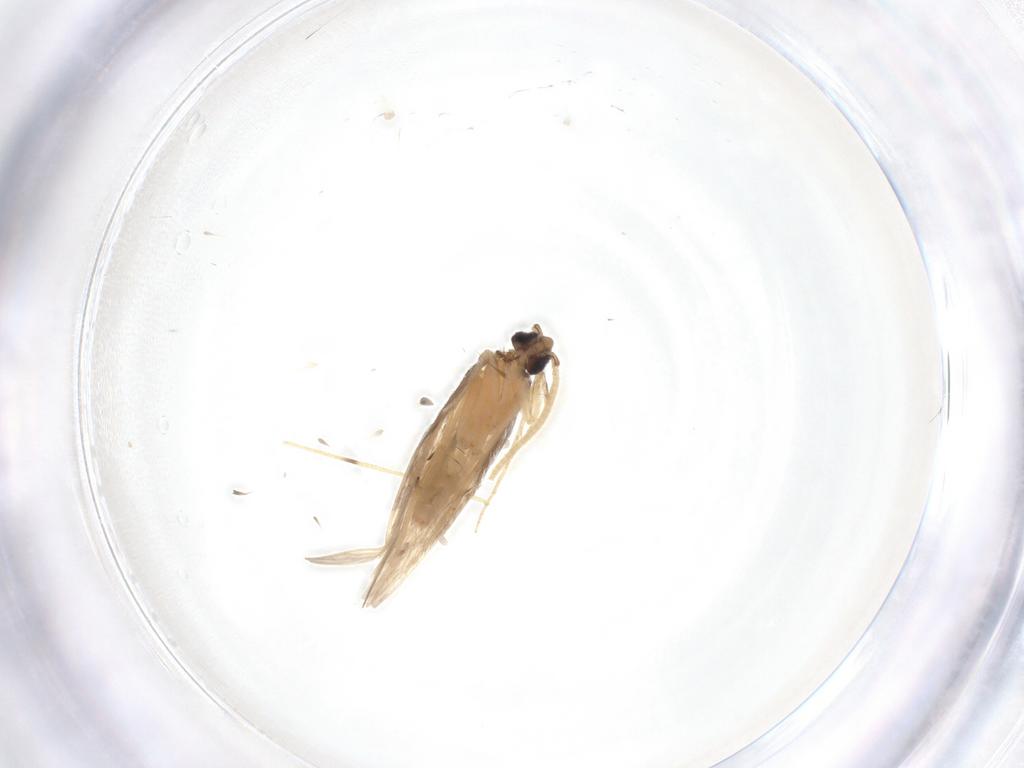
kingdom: Animalia
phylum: Arthropoda
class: Insecta
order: Trichoptera
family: Hydroptilidae
